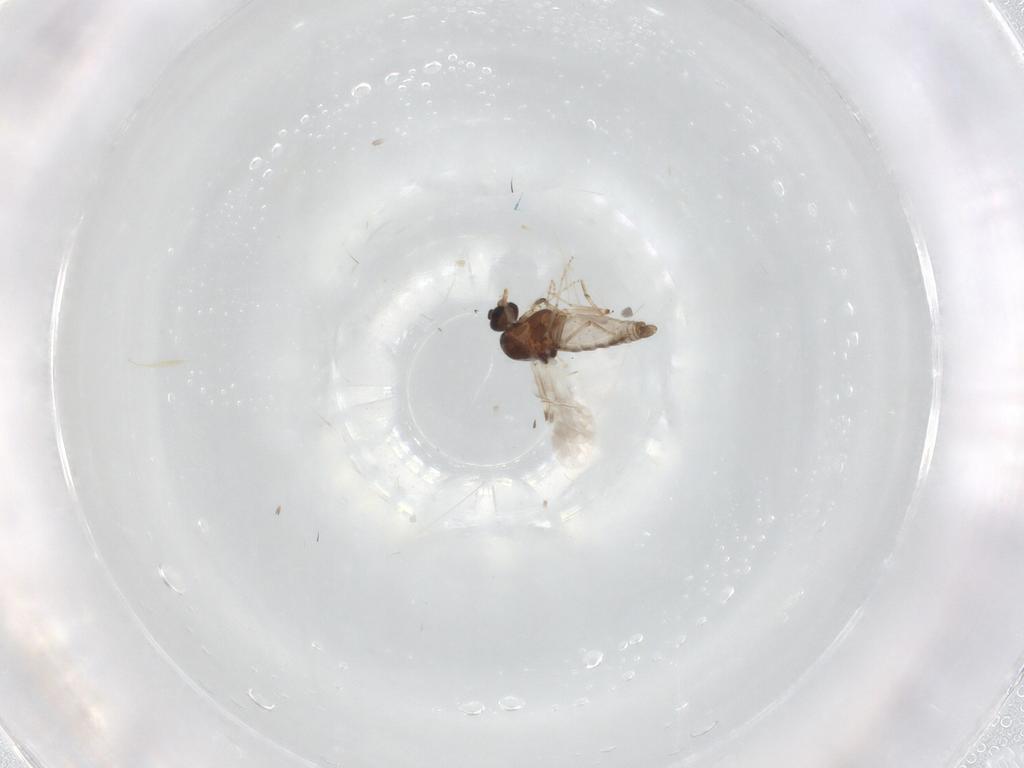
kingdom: Animalia
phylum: Arthropoda
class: Insecta
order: Diptera
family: Ceratopogonidae
